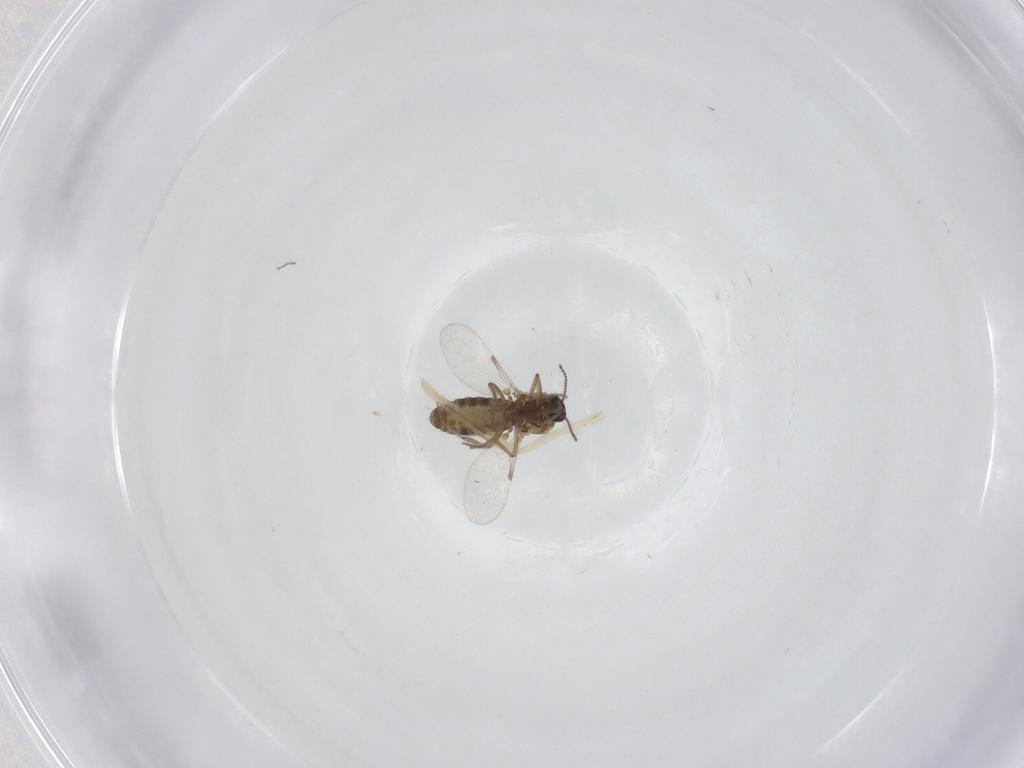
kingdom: Animalia
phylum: Arthropoda
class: Insecta
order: Diptera
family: Ceratopogonidae
